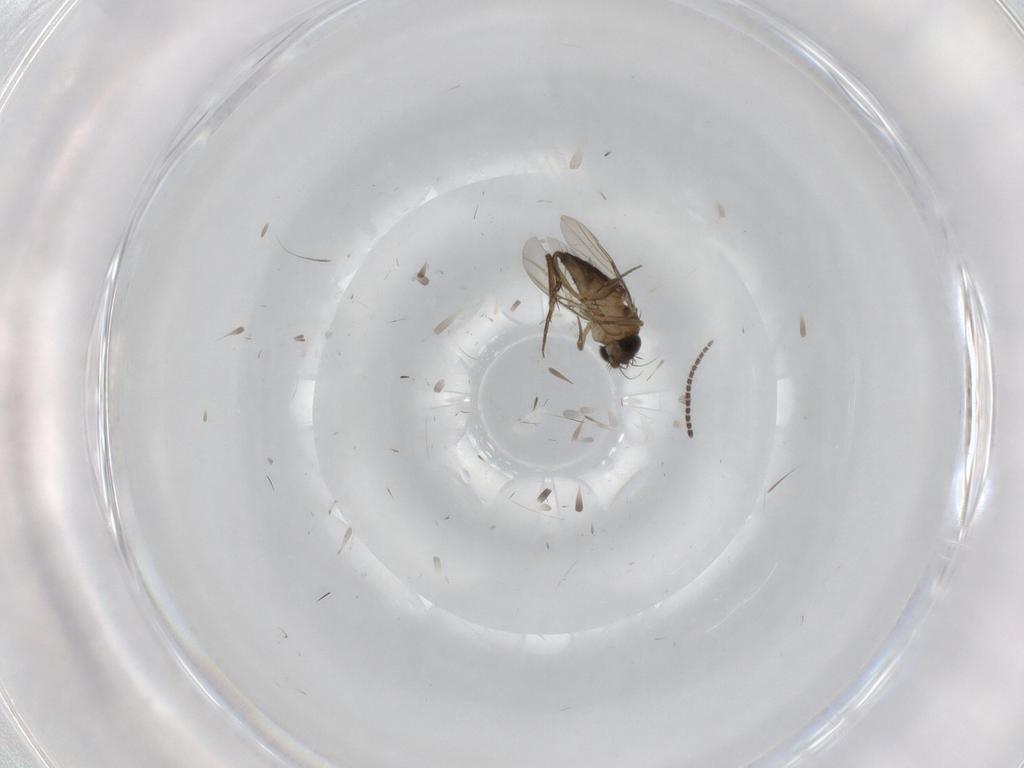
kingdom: Animalia
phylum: Arthropoda
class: Insecta
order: Diptera
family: Phoridae
